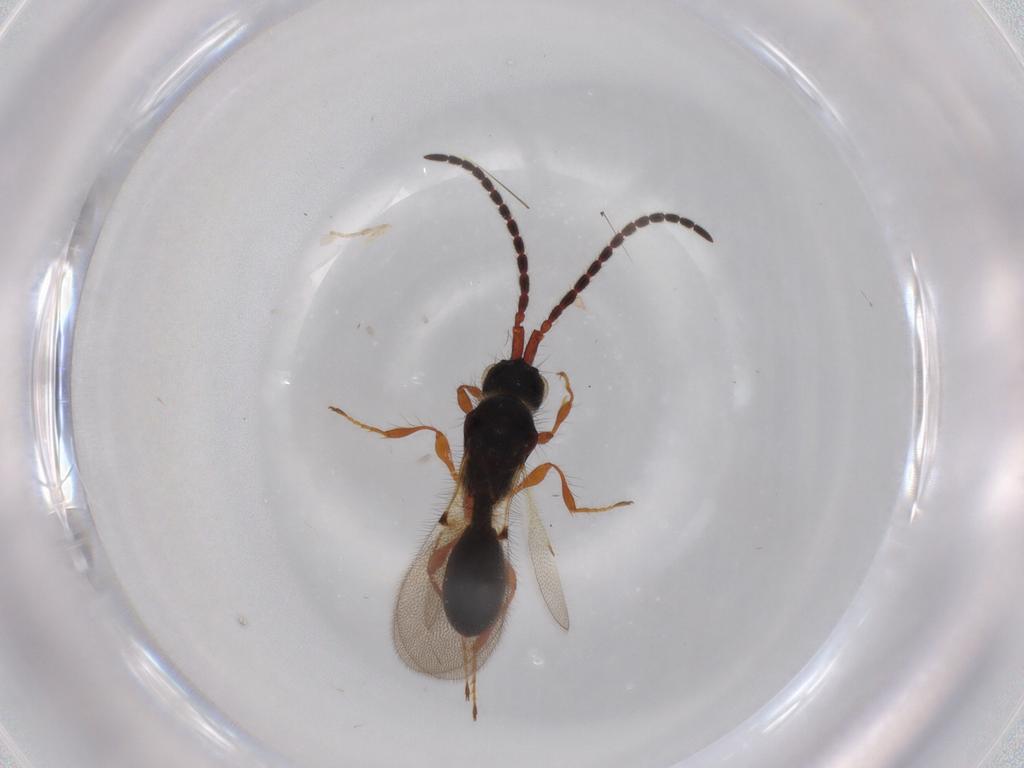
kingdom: Animalia
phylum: Arthropoda
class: Insecta
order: Hymenoptera
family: Diapriidae
